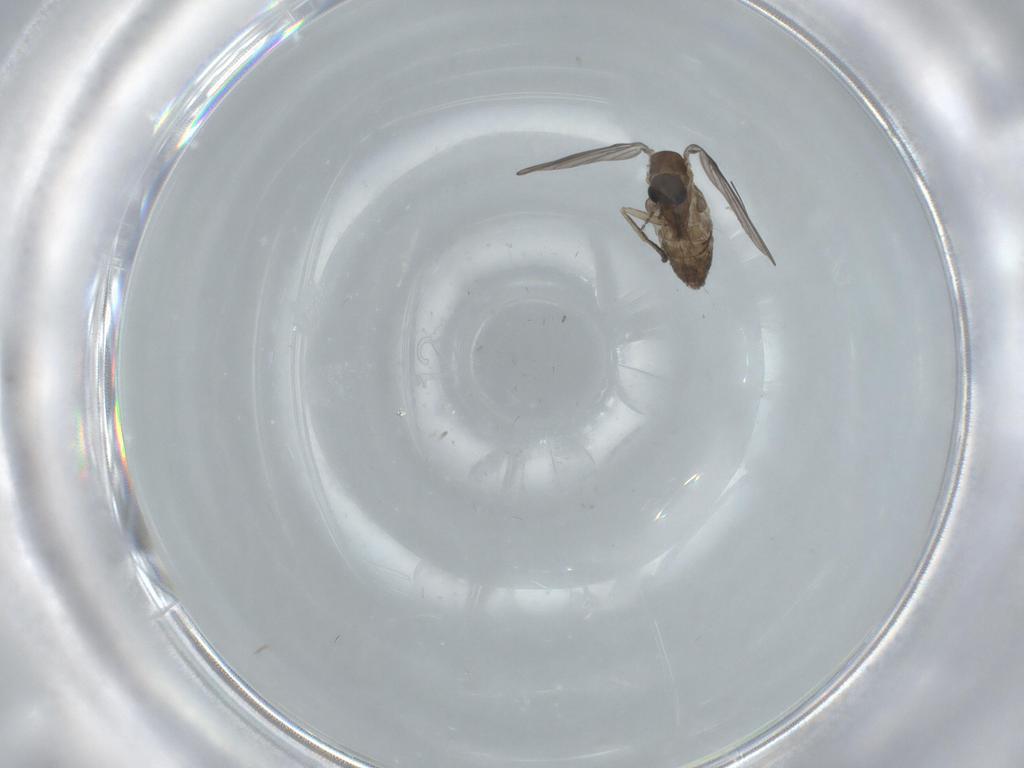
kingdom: Animalia
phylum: Arthropoda
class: Insecta
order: Diptera
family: Psychodidae
